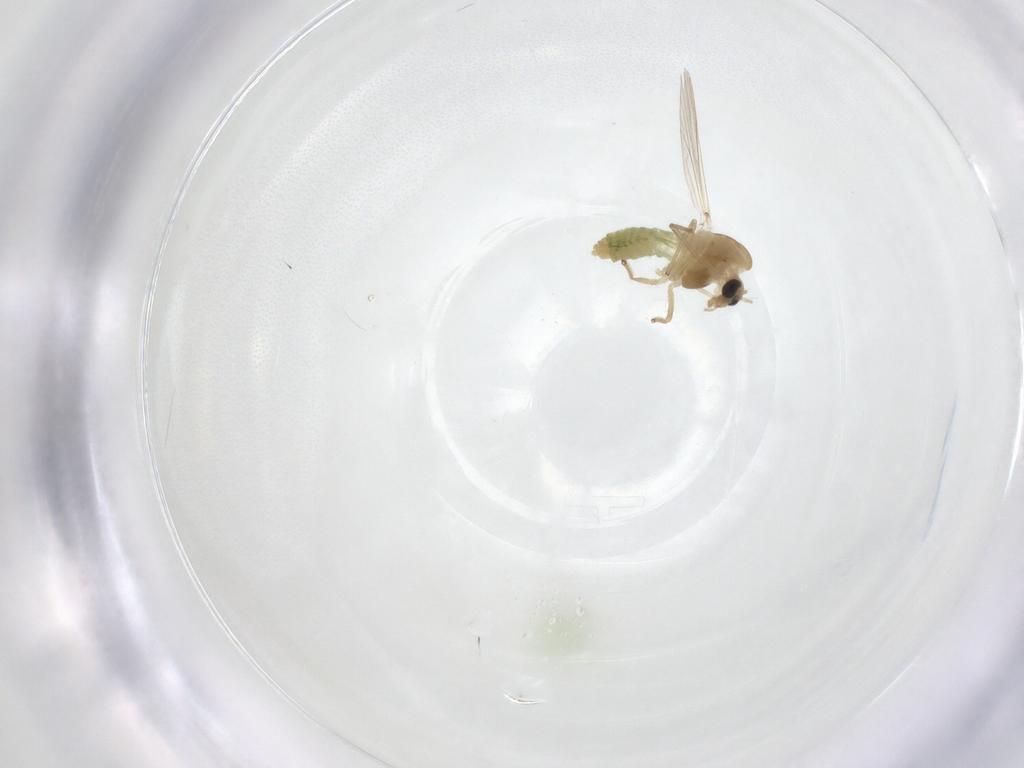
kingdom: Animalia
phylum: Arthropoda
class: Insecta
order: Diptera
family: Chironomidae
